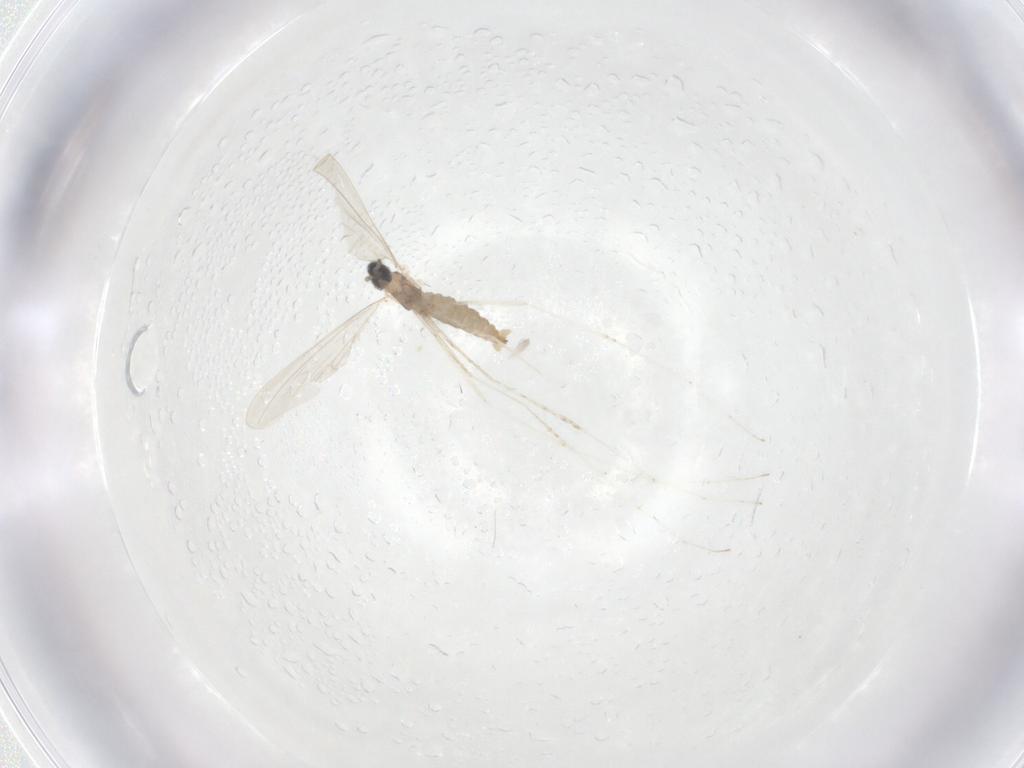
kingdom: Animalia
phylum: Arthropoda
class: Insecta
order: Diptera
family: Cecidomyiidae
